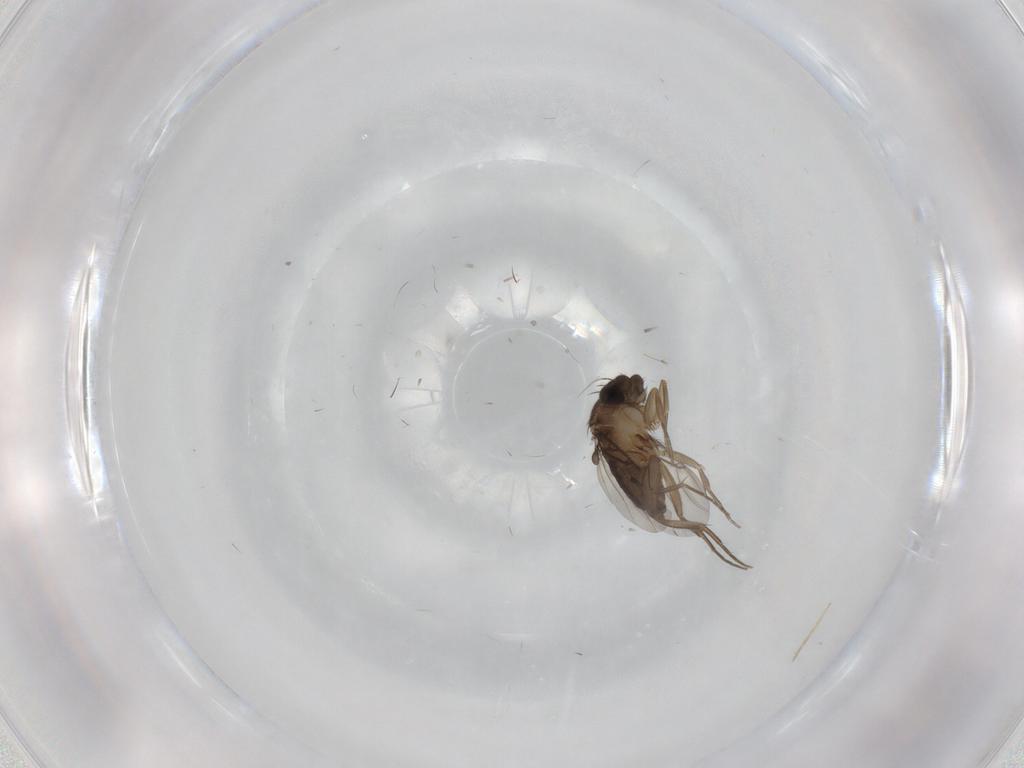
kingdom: Animalia
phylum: Arthropoda
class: Insecta
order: Diptera
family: Phoridae
